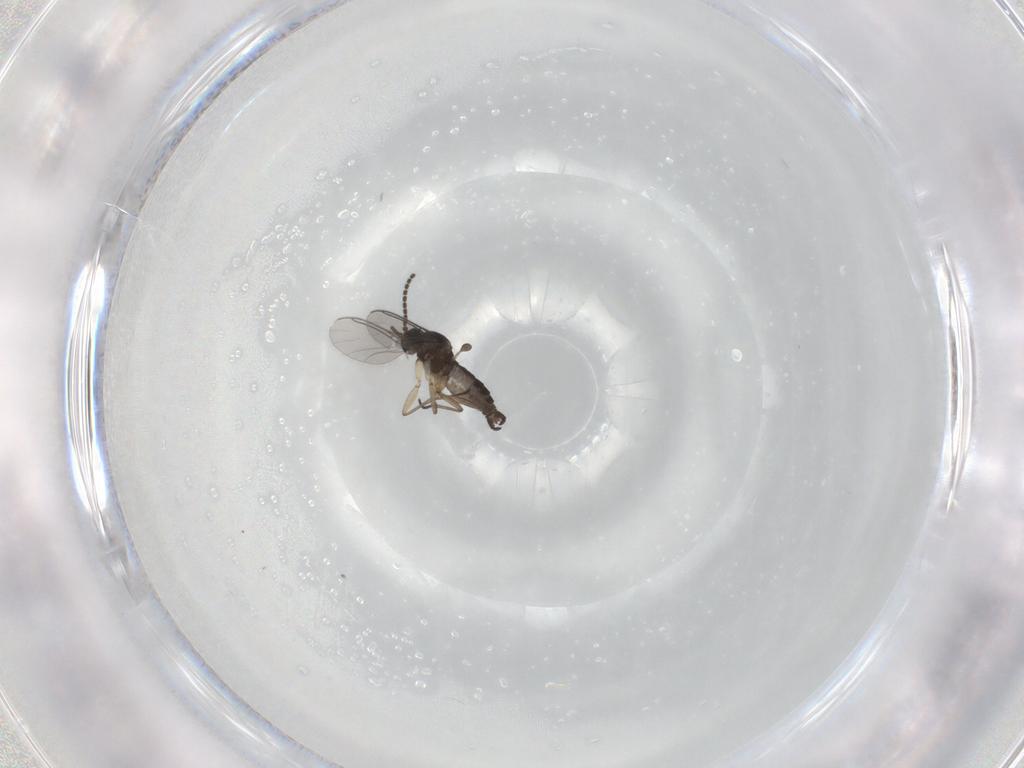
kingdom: Animalia
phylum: Arthropoda
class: Insecta
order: Diptera
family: Sciaridae
